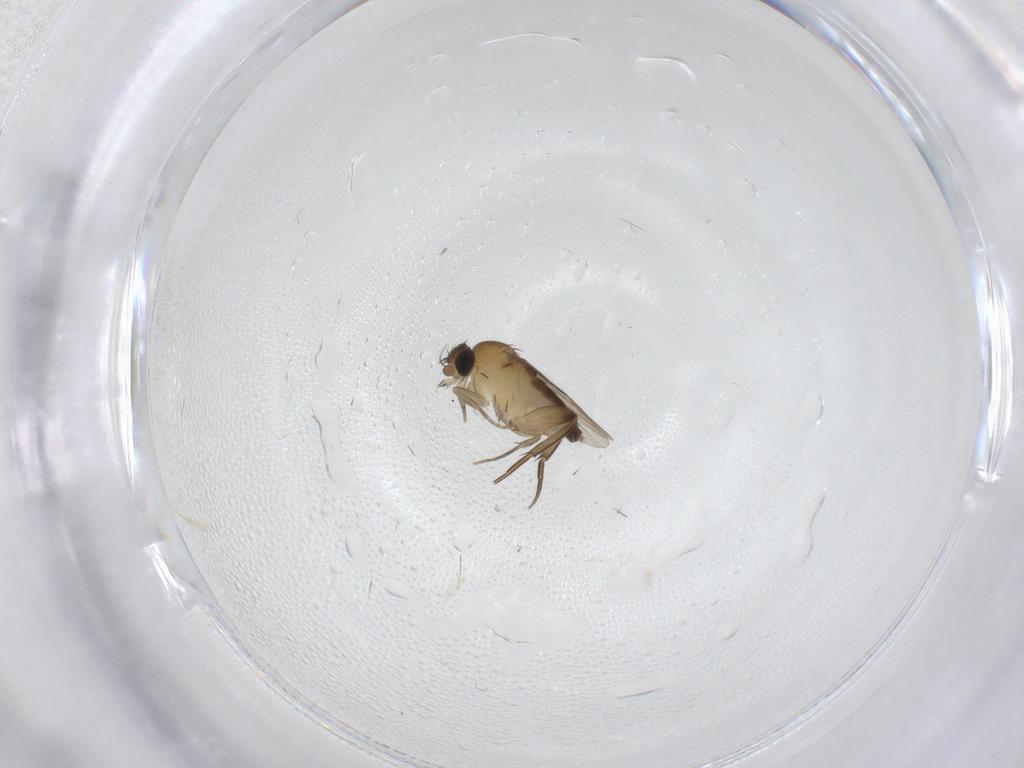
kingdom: Animalia
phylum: Arthropoda
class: Insecta
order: Diptera
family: Phoridae
